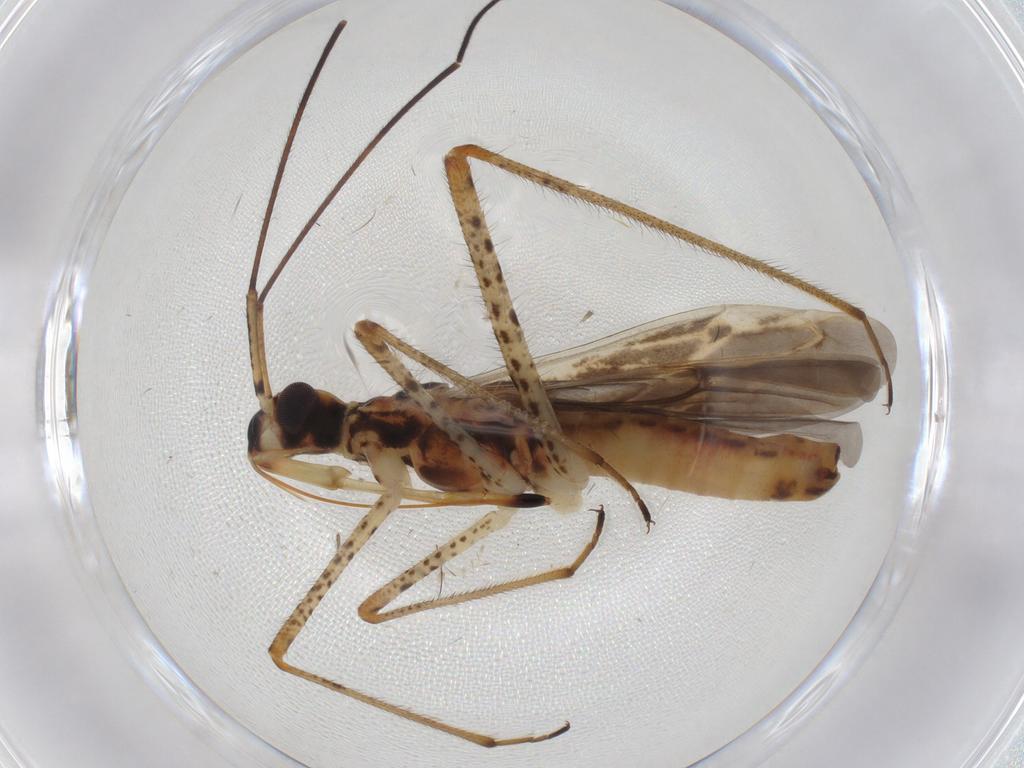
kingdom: Animalia
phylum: Arthropoda
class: Insecta
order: Hemiptera
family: Miridae
